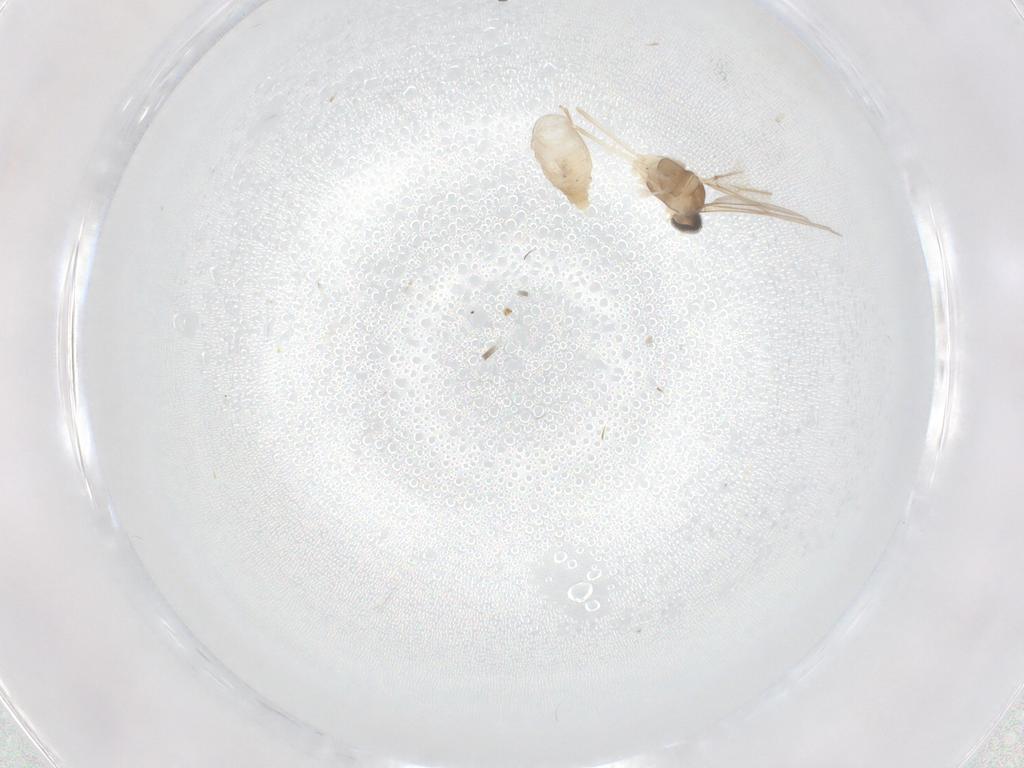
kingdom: Animalia
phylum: Arthropoda
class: Insecta
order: Diptera
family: Cecidomyiidae
